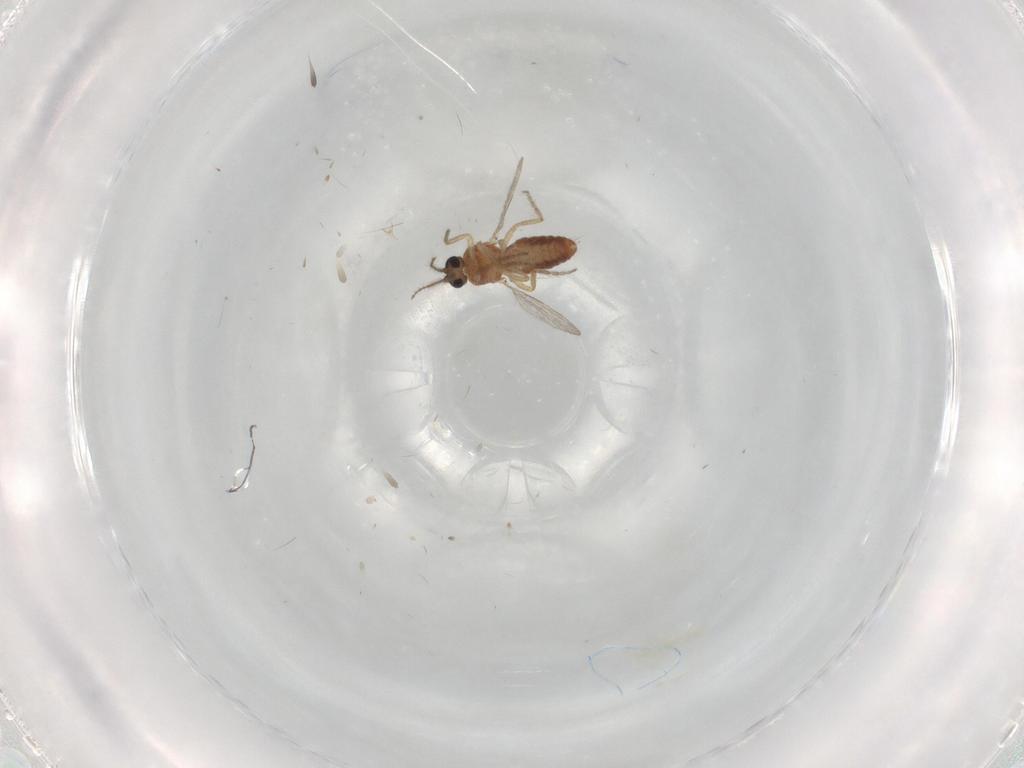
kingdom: Animalia
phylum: Arthropoda
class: Insecta
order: Diptera
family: Ceratopogonidae
